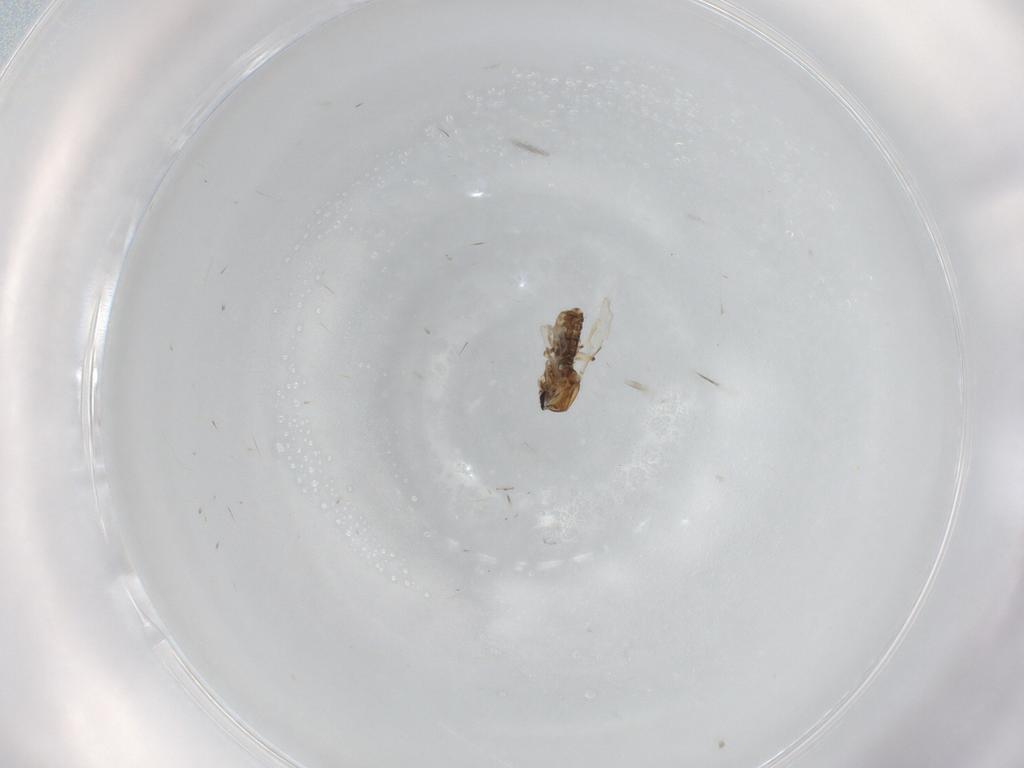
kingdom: Animalia
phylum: Arthropoda
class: Insecta
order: Diptera
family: Ceratopogonidae
